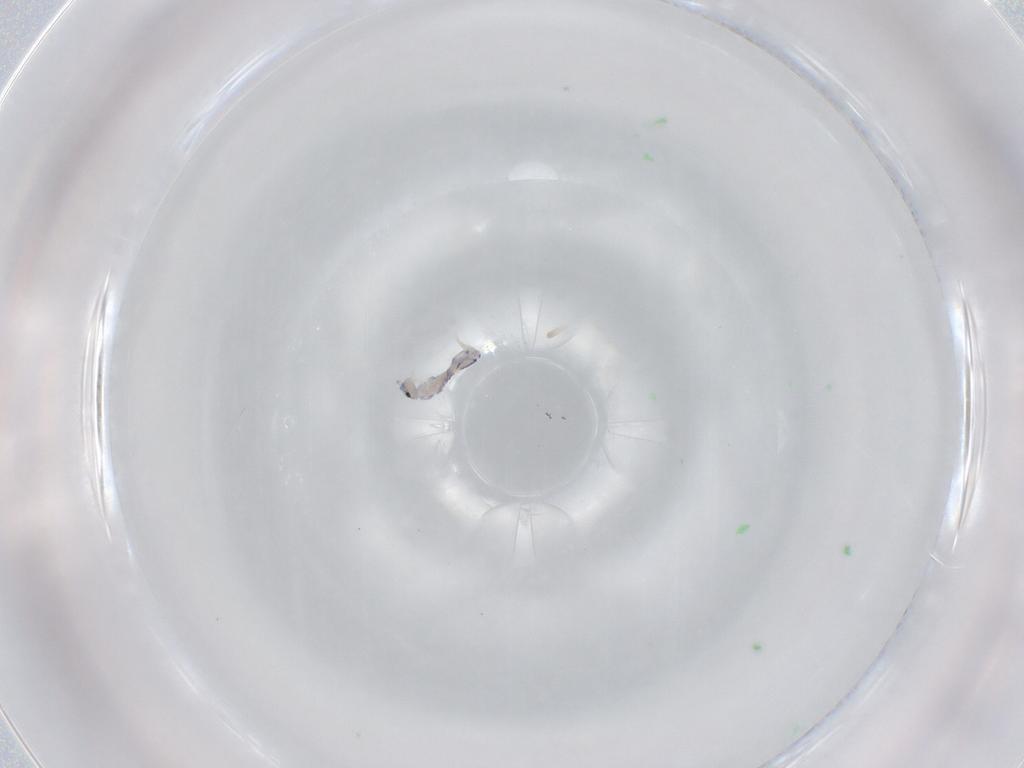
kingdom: Animalia
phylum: Arthropoda
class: Collembola
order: Entomobryomorpha
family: Entomobryidae
